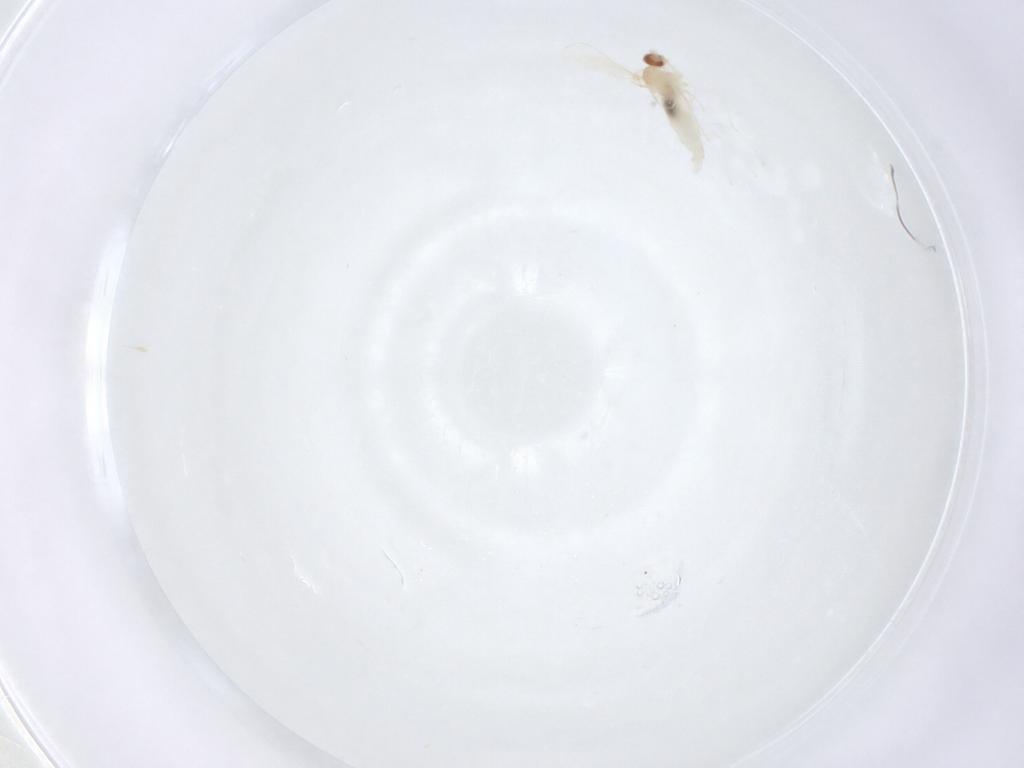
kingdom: Animalia
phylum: Arthropoda
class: Insecta
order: Diptera
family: Cecidomyiidae
